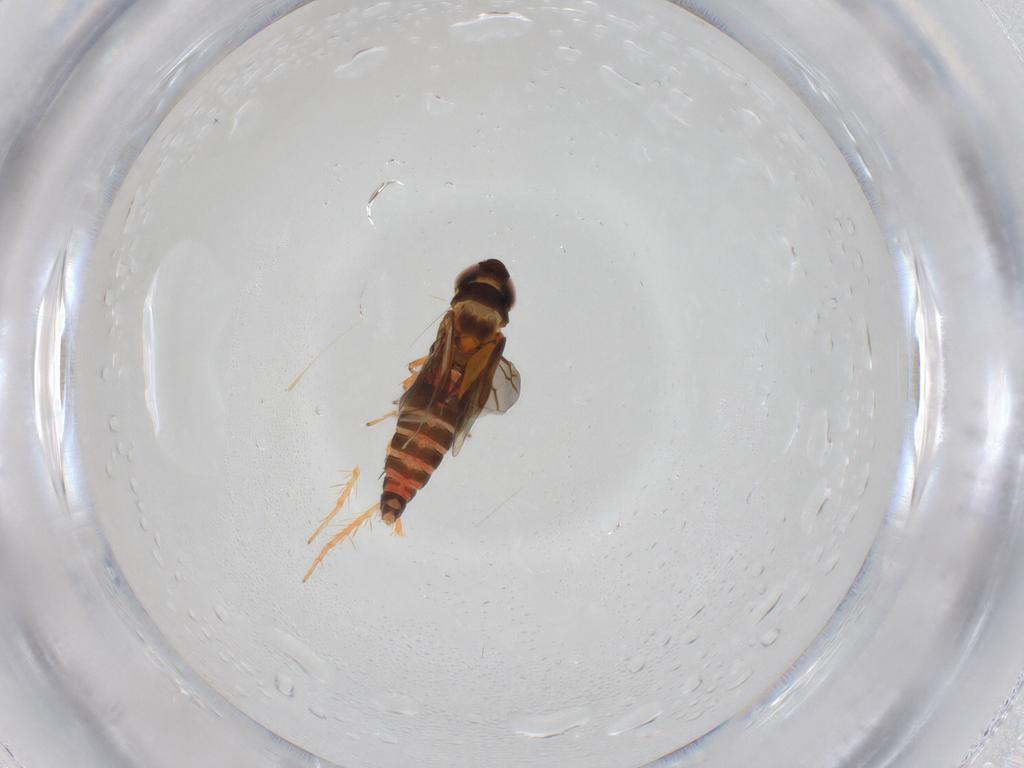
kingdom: Animalia
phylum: Arthropoda
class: Insecta
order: Hemiptera
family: Cicadellidae
